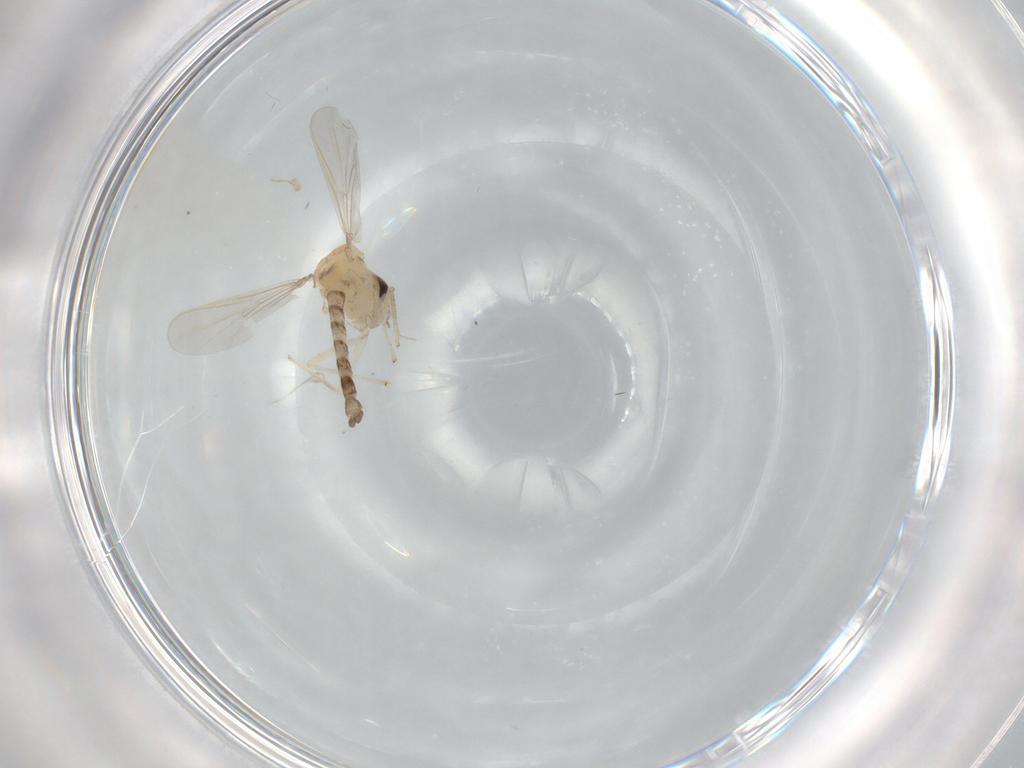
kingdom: Animalia
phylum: Arthropoda
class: Insecta
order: Diptera
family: Chironomidae
